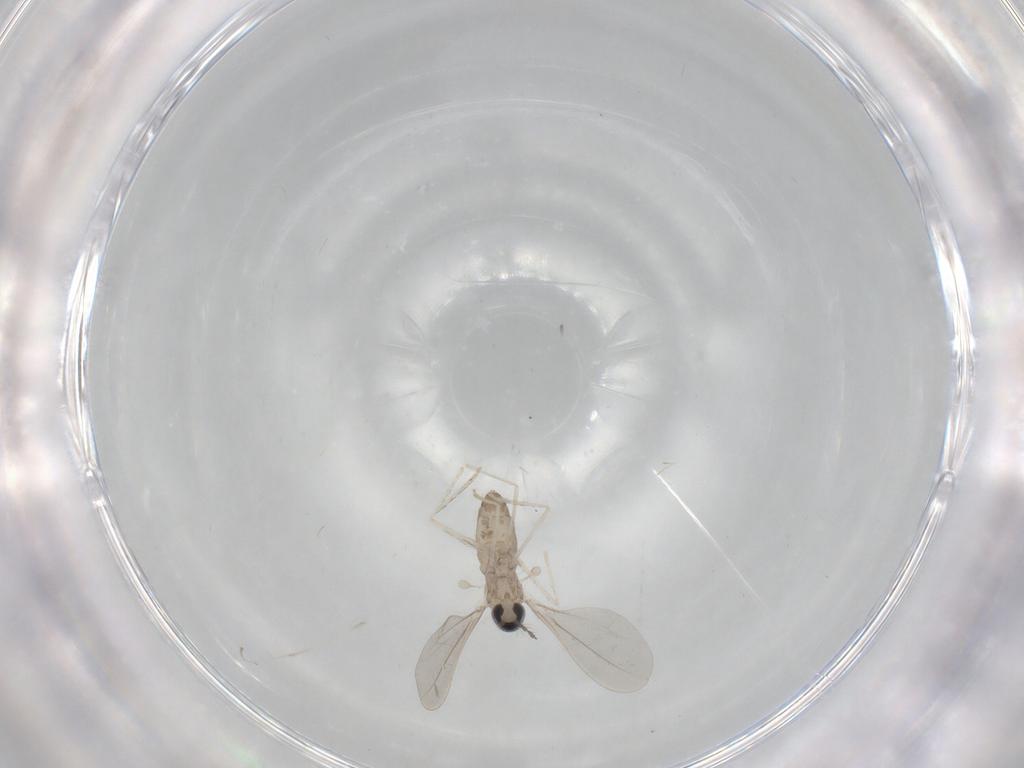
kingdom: Animalia
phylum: Arthropoda
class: Insecta
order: Diptera
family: Cecidomyiidae
